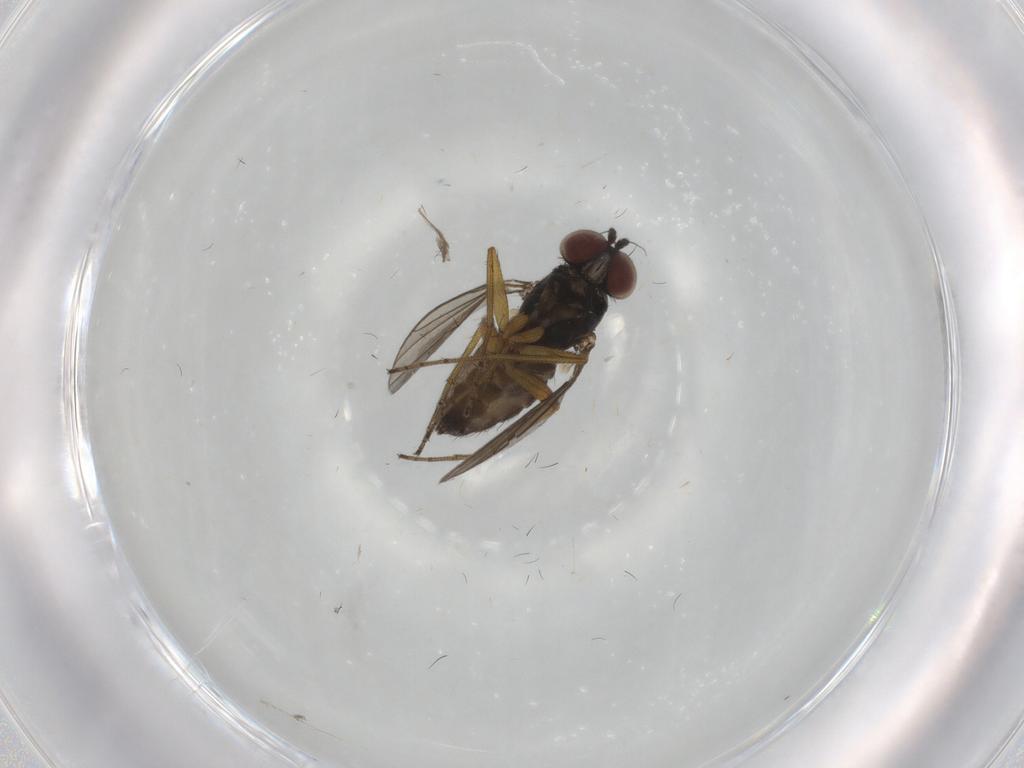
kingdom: Animalia
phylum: Arthropoda
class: Insecta
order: Diptera
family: Dolichopodidae
